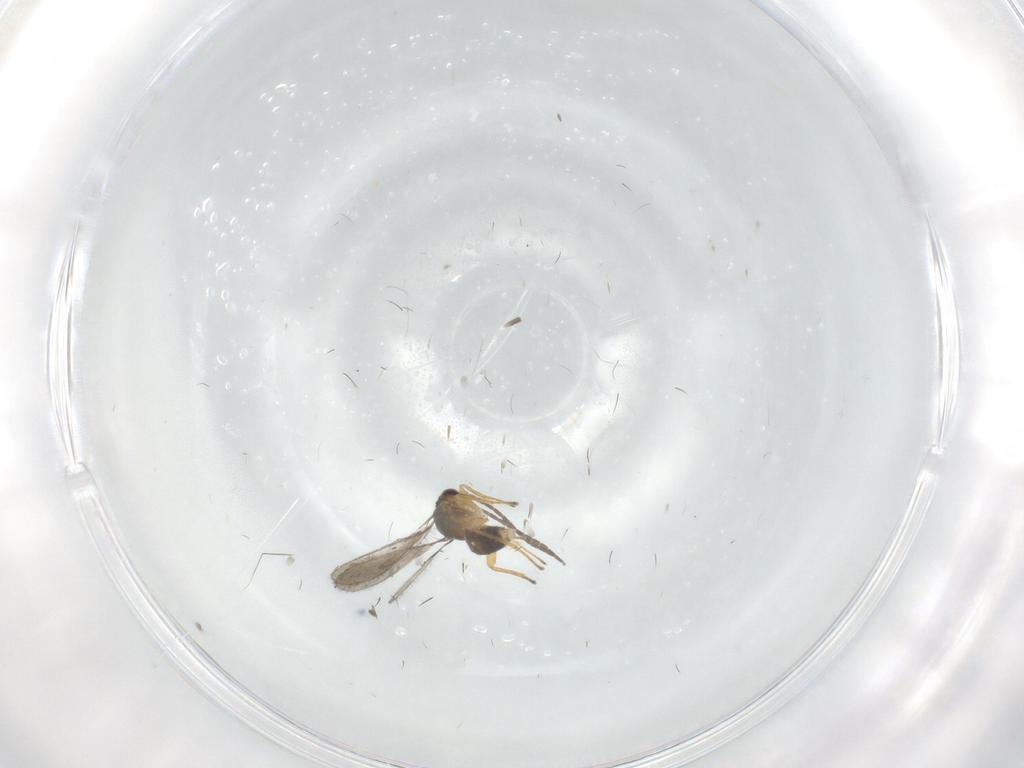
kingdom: Animalia
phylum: Arthropoda
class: Insecta
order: Diptera
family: Chironomidae
